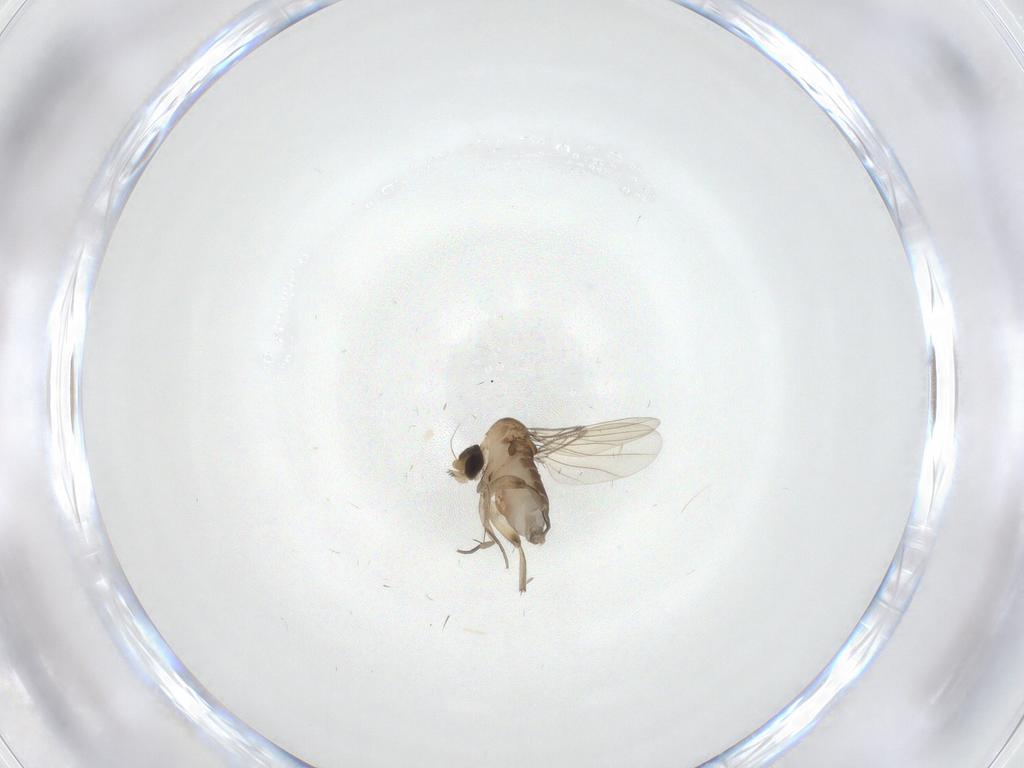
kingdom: Animalia
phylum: Arthropoda
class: Insecta
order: Diptera
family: Phoridae
